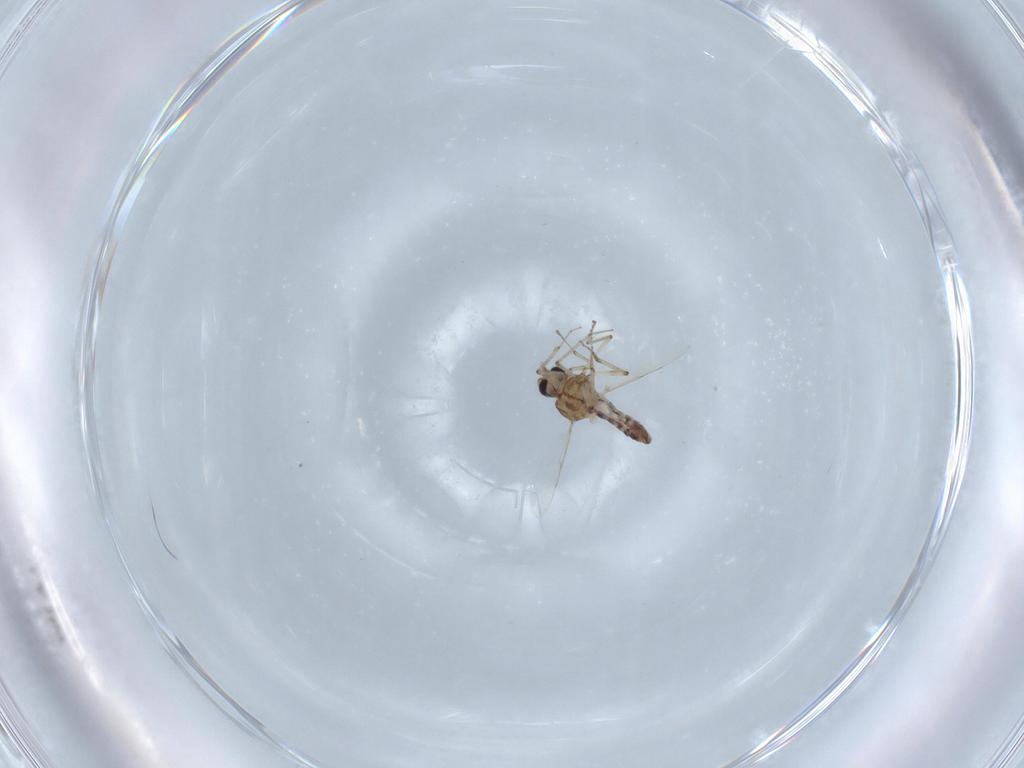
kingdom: Animalia
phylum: Arthropoda
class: Insecta
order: Diptera
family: Ceratopogonidae
